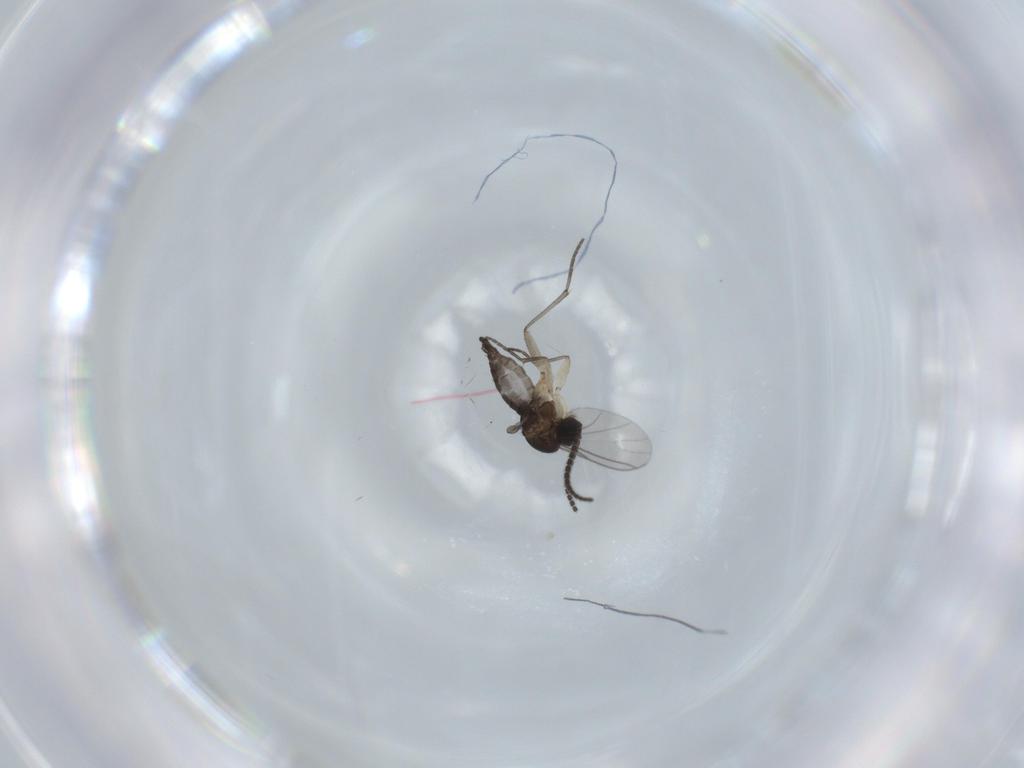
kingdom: Animalia
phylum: Arthropoda
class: Insecta
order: Diptera
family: Sciaridae
